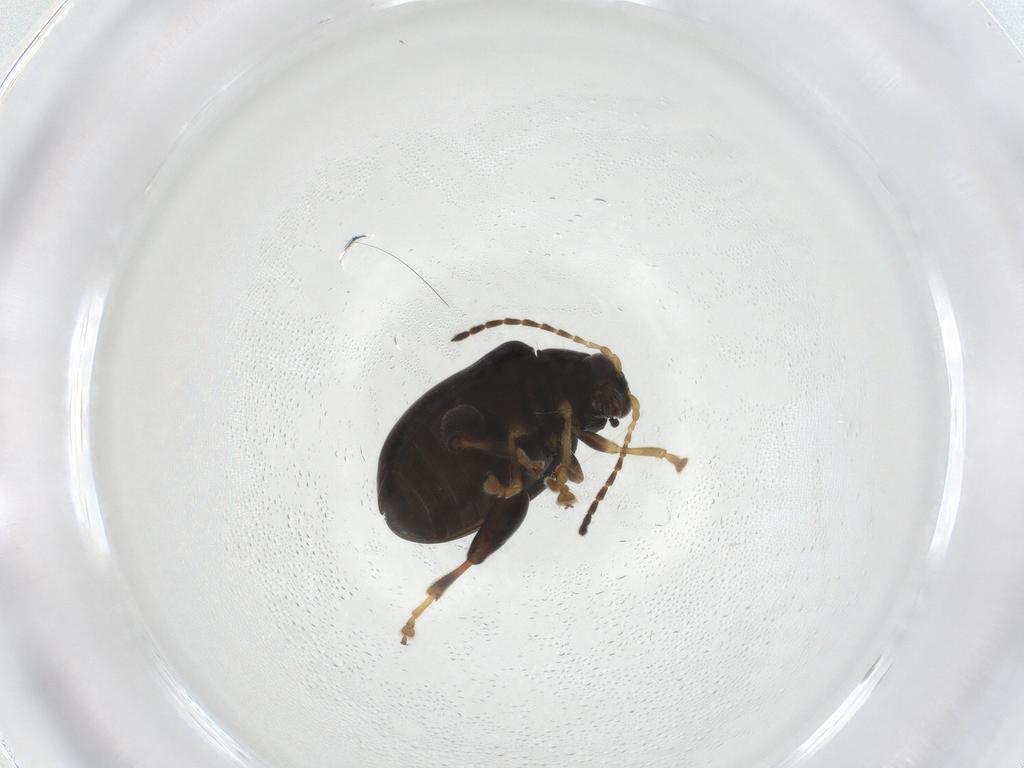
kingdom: Animalia
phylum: Arthropoda
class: Insecta
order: Coleoptera
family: Chrysomelidae
